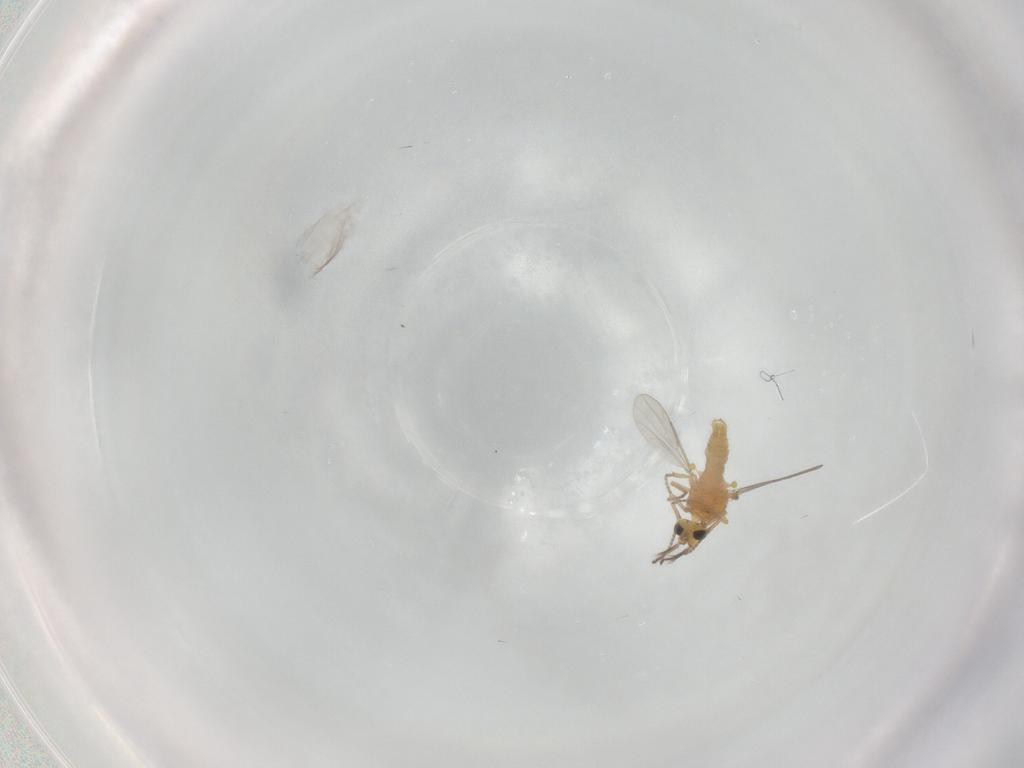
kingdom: Animalia
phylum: Arthropoda
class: Insecta
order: Diptera
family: Ceratopogonidae
